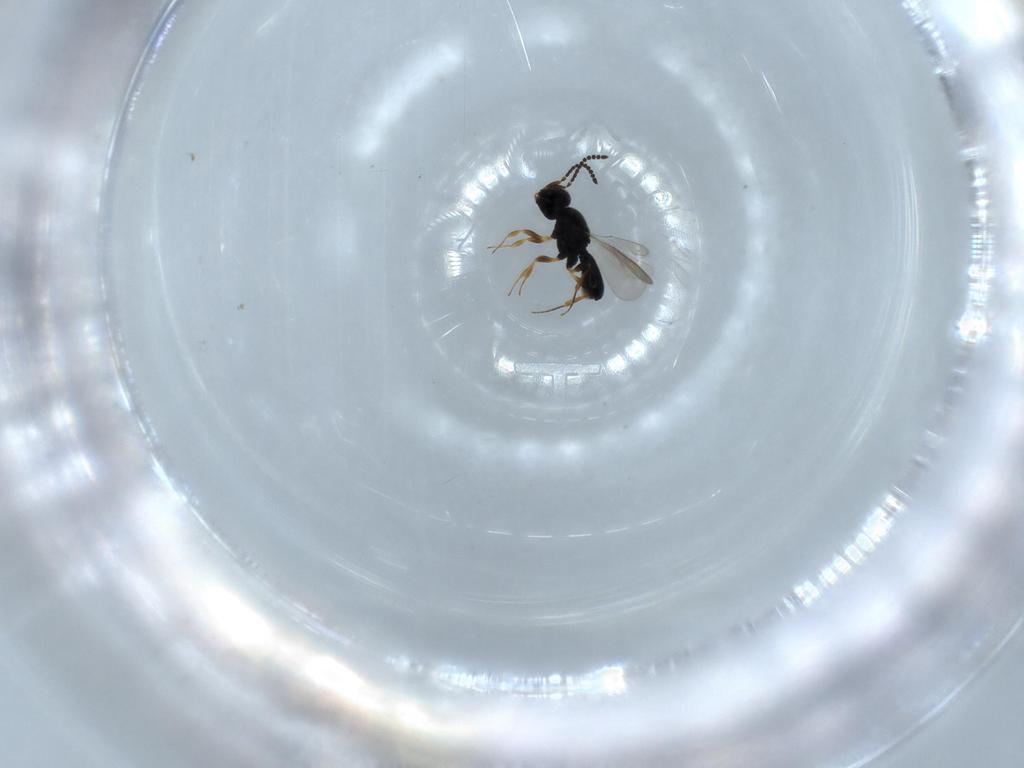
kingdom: Animalia
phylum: Arthropoda
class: Insecta
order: Hymenoptera
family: Scelionidae
